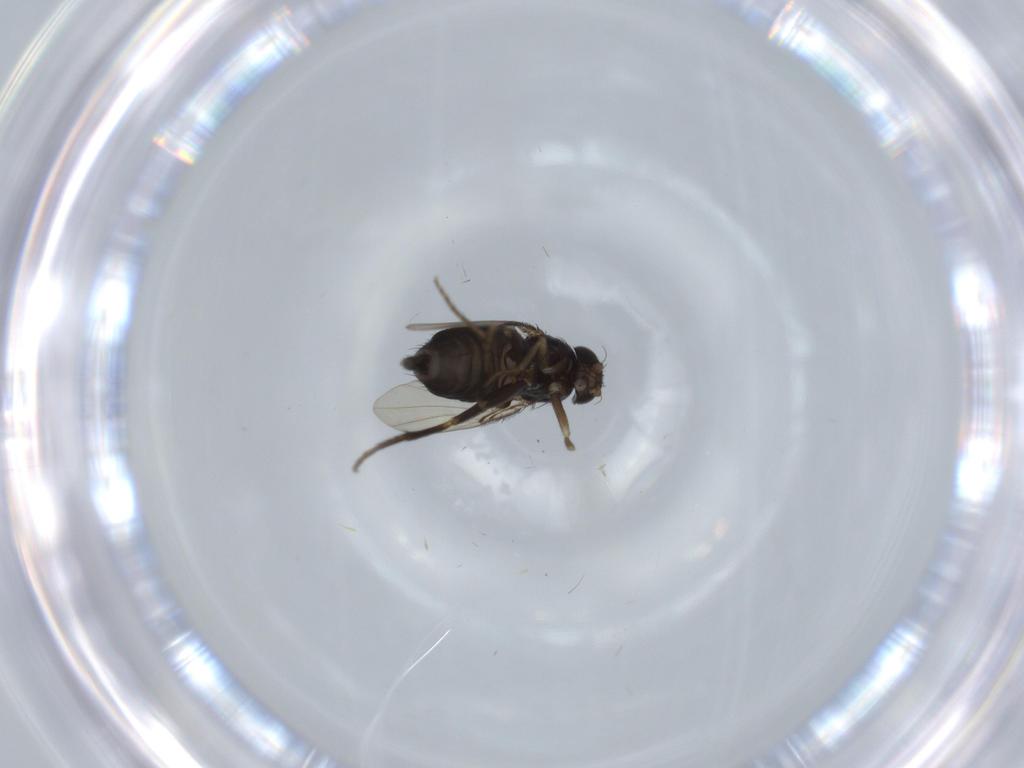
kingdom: Animalia
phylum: Arthropoda
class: Insecta
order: Diptera
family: Phoridae
